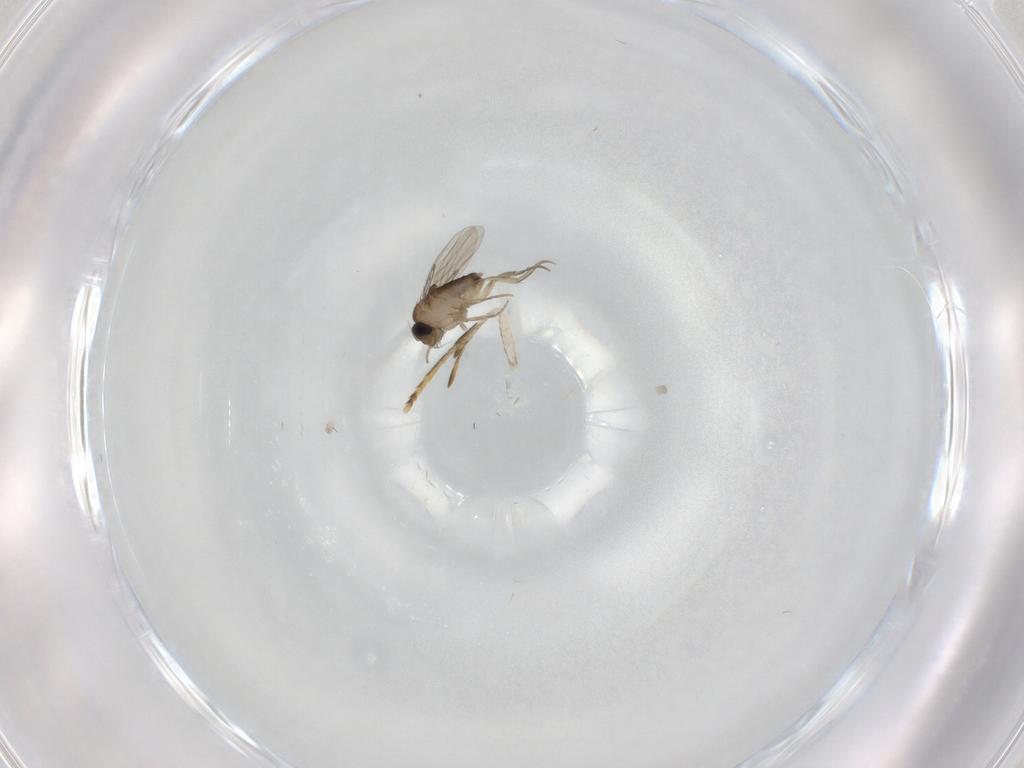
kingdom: Animalia
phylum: Arthropoda
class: Insecta
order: Diptera
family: Phoridae
